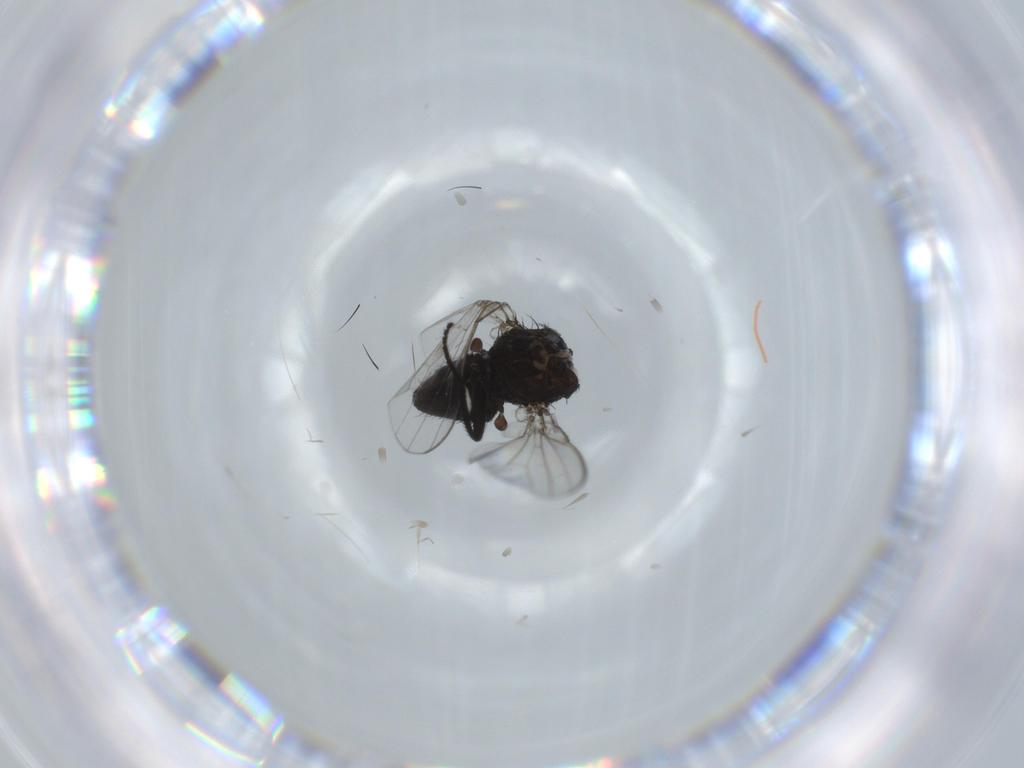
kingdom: Animalia
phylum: Arthropoda
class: Insecta
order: Diptera
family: Milichiidae
